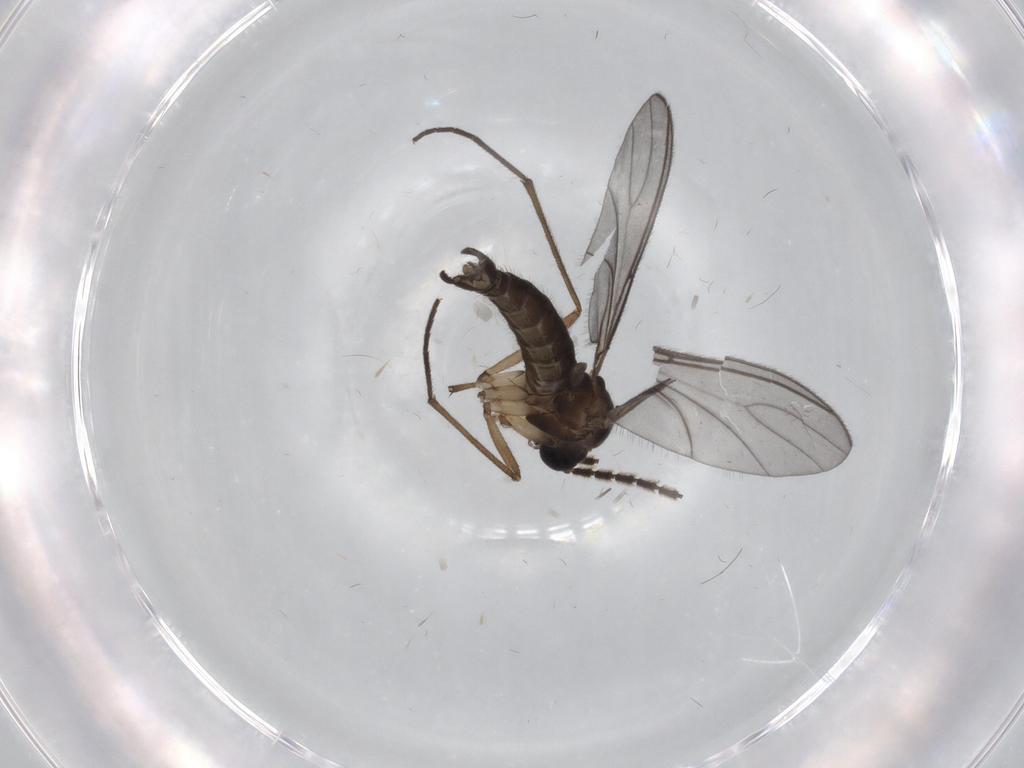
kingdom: Animalia
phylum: Arthropoda
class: Insecta
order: Diptera
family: Sciaridae
